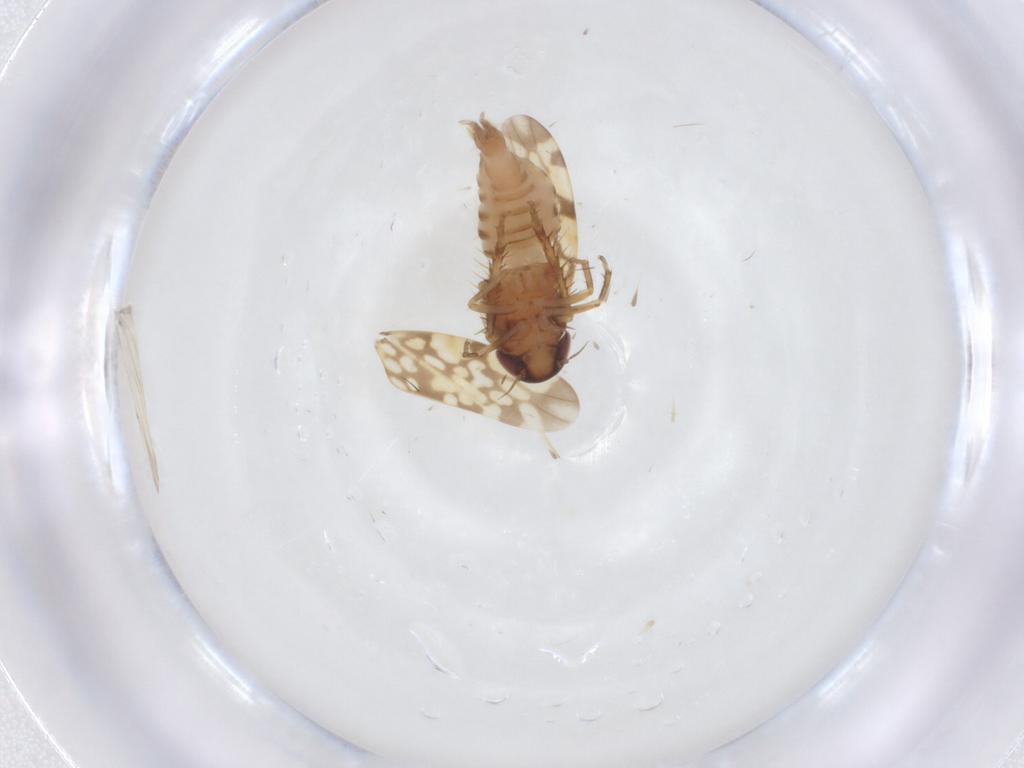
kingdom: Animalia
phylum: Arthropoda
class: Insecta
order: Hemiptera
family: Cicadellidae
